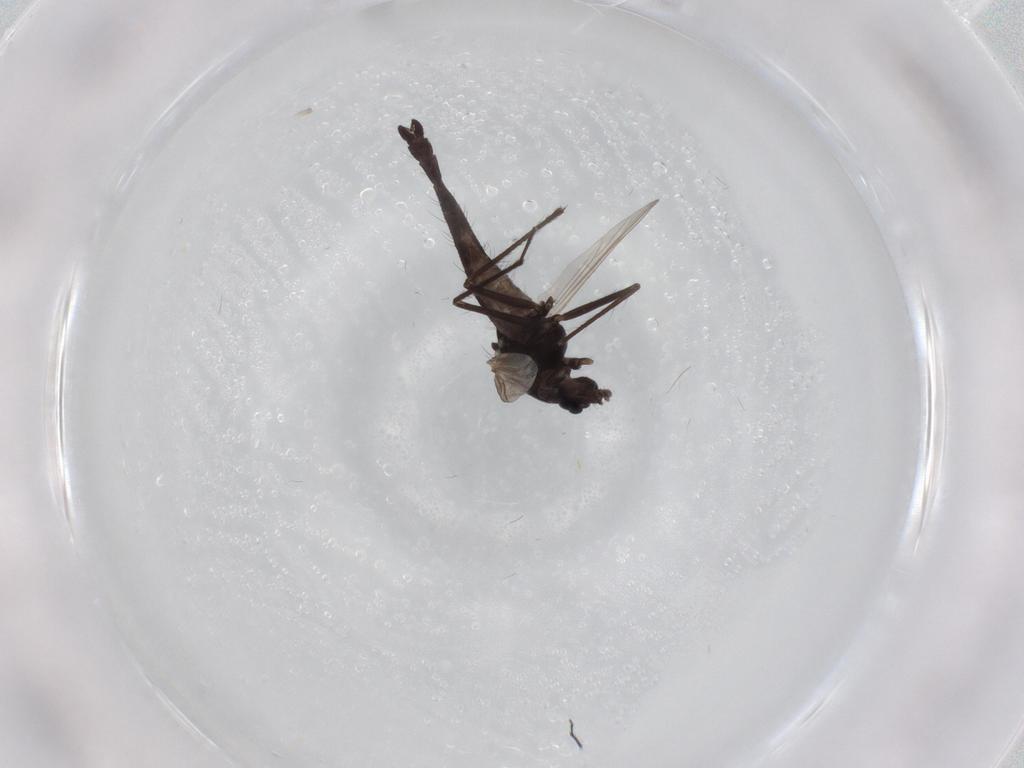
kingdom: Animalia
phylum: Arthropoda
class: Insecta
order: Diptera
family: Chironomidae
